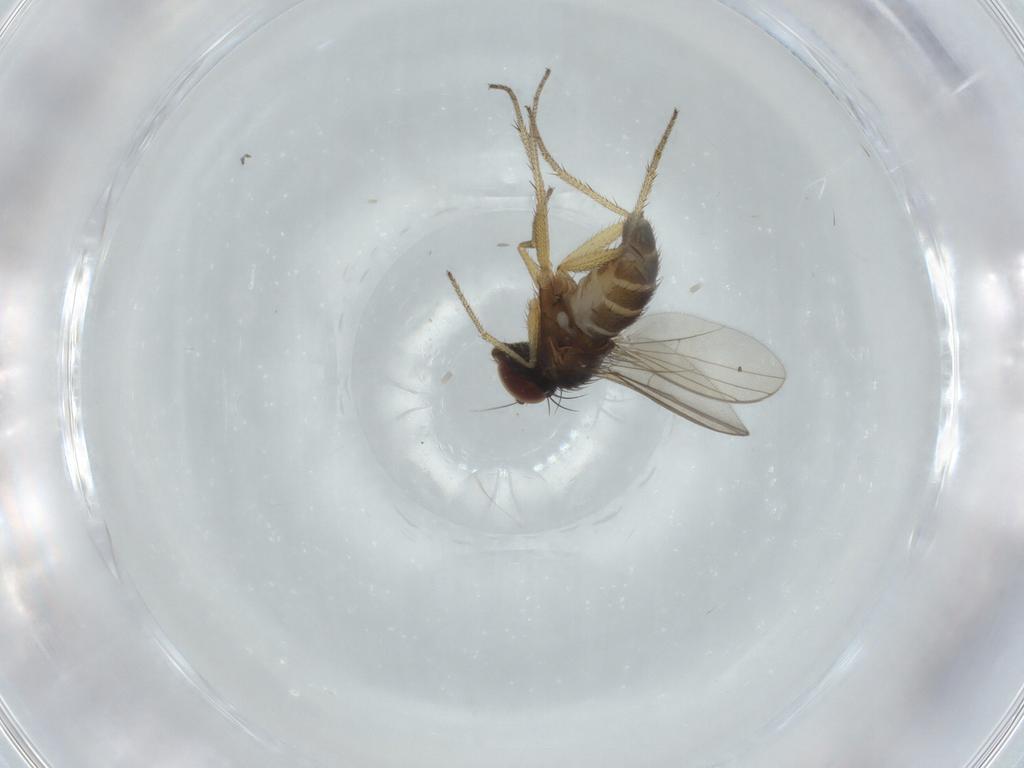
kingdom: Animalia
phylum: Arthropoda
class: Insecta
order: Diptera
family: Dolichopodidae
